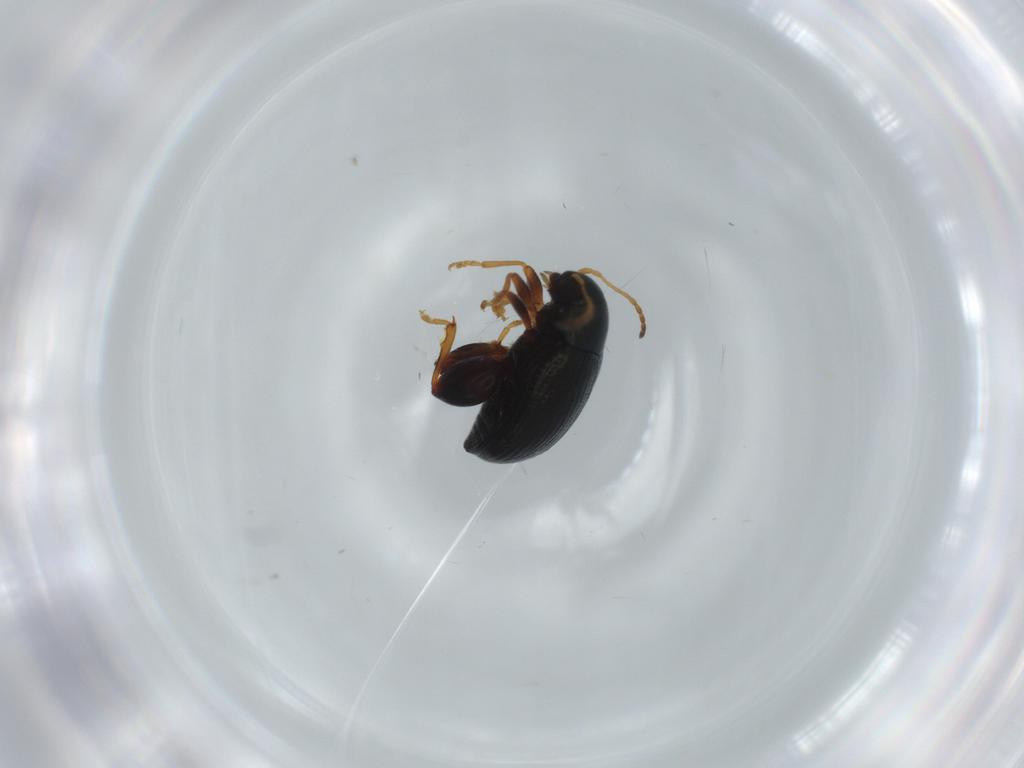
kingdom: Animalia
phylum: Arthropoda
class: Insecta
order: Coleoptera
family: Chrysomelidae
